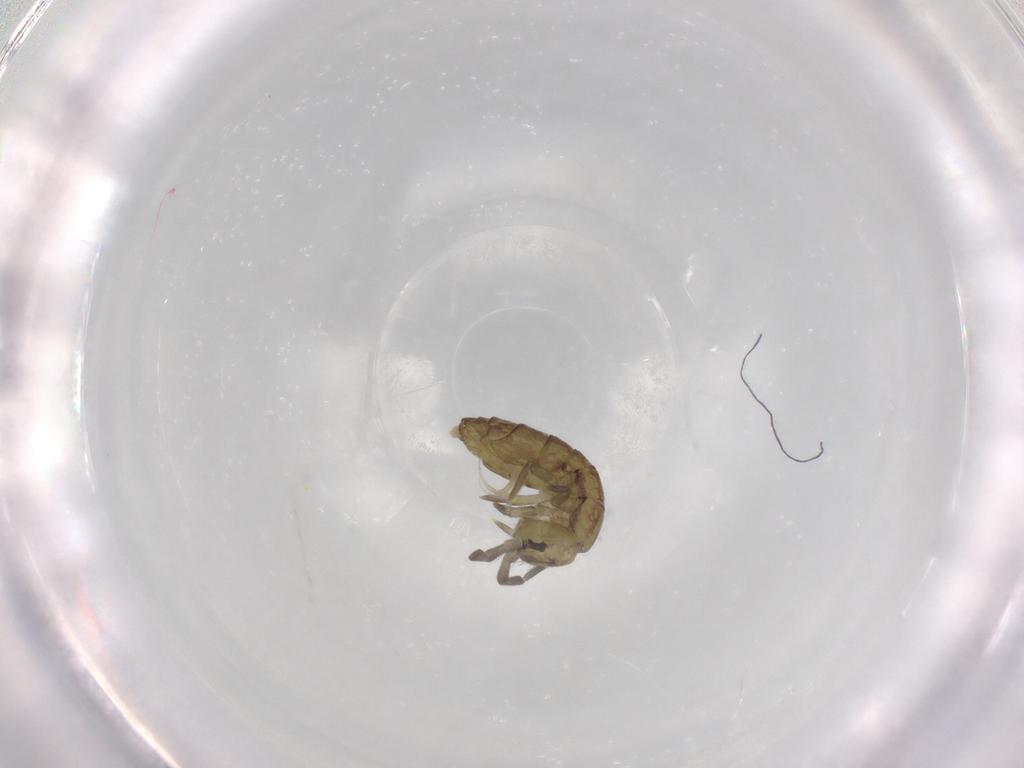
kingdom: Animalia
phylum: Arthropoda
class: Collembola
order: Entomobryomorpha
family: Isotomidae
